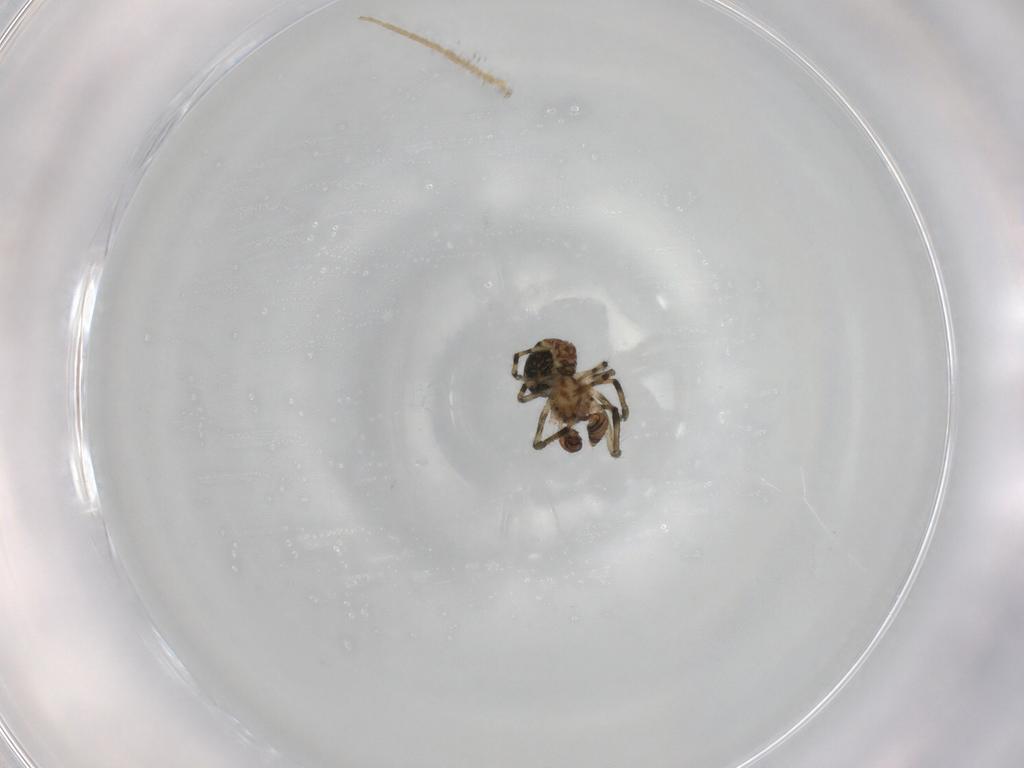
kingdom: Animalia
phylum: Arthropoda
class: Arachnida
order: Araneae
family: Mysmenidae
